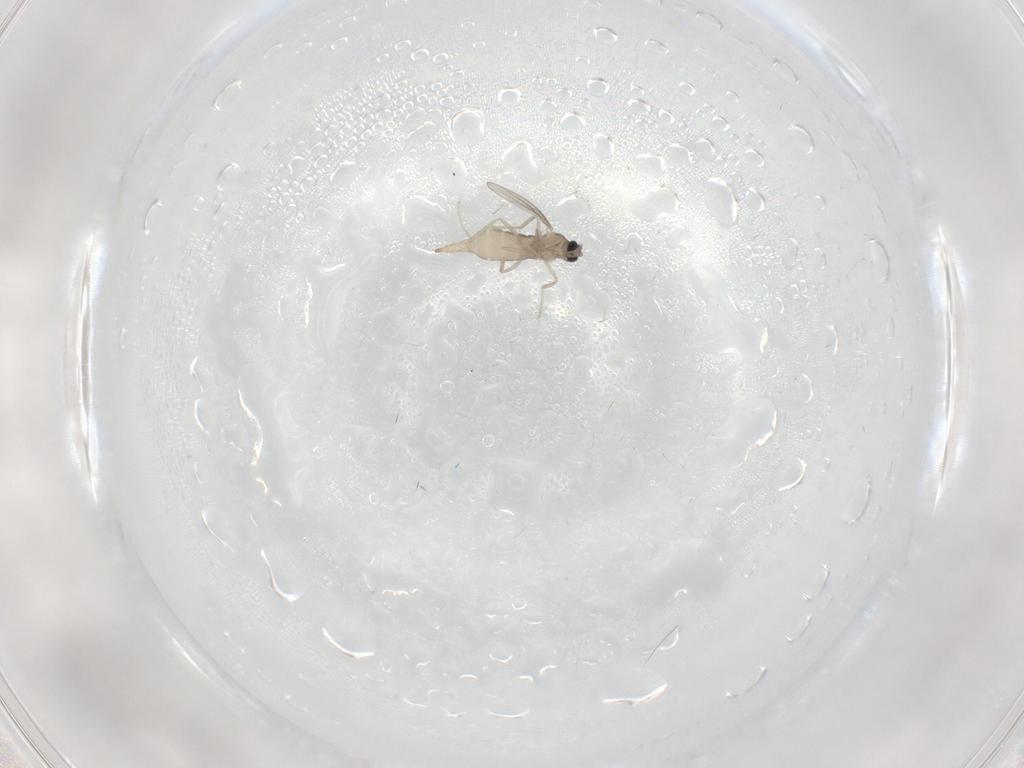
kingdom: Animalia
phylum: Arthropoda
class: Insecta
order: Diptera
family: Cecidomyiidae
